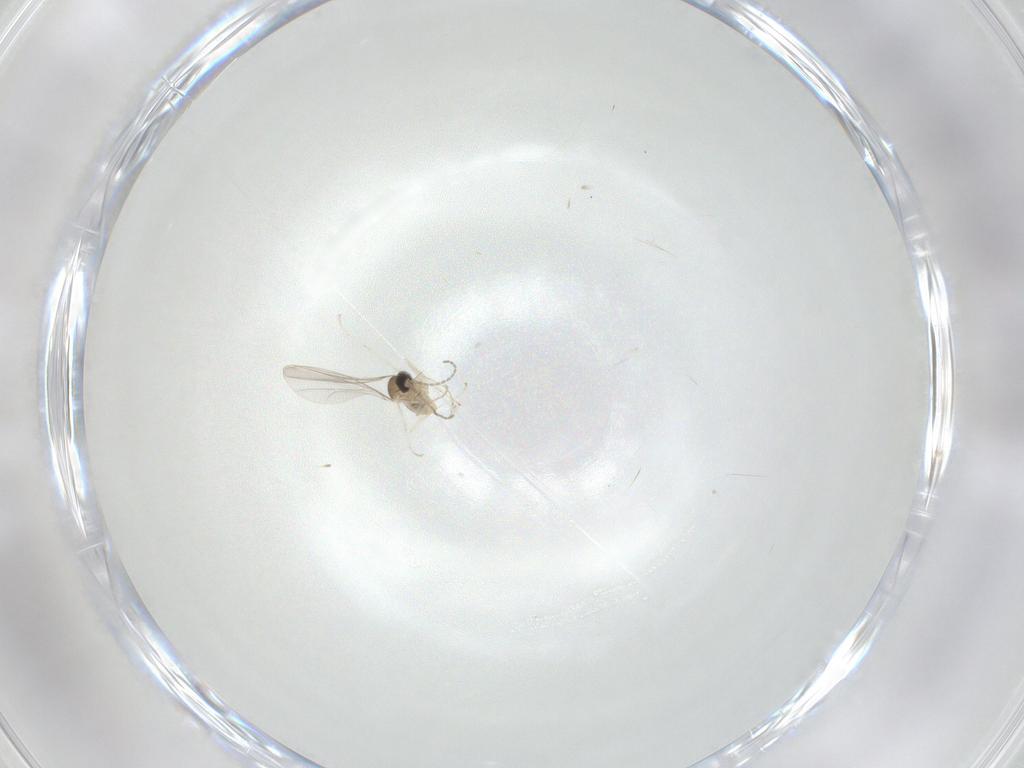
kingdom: Animalia
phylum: Arthropoda
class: Insecta
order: Diptera
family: Cecidomyiidae
